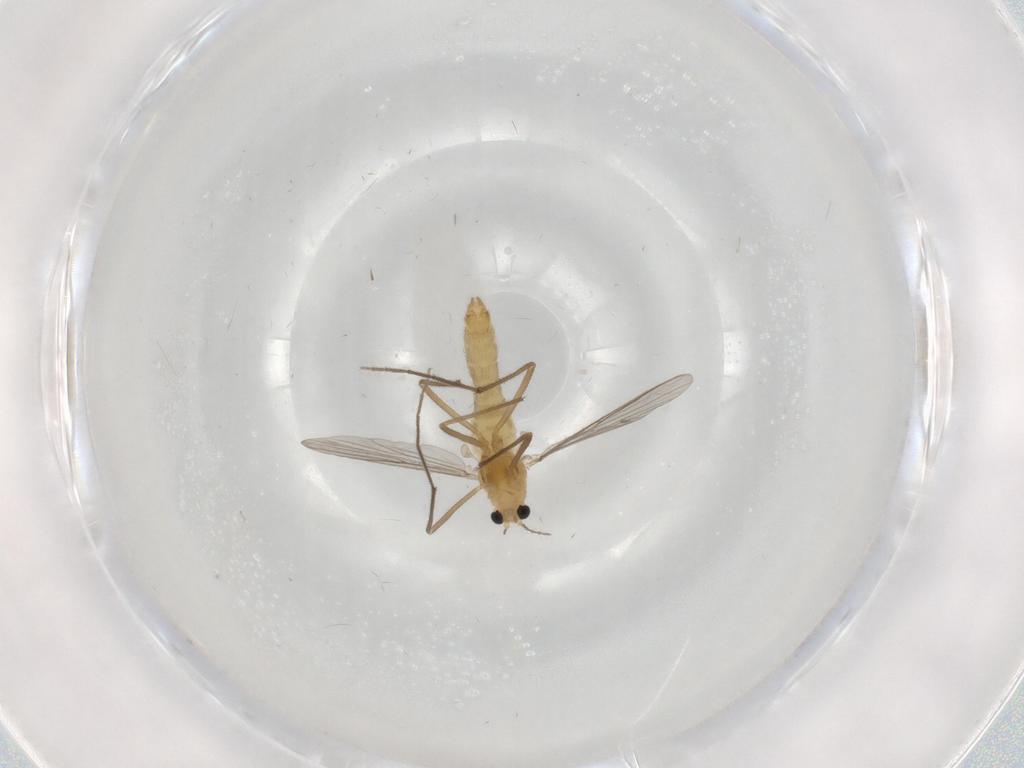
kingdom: Animalia
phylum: Arthropoda
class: Insecta
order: Diptera
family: Chironomidae
